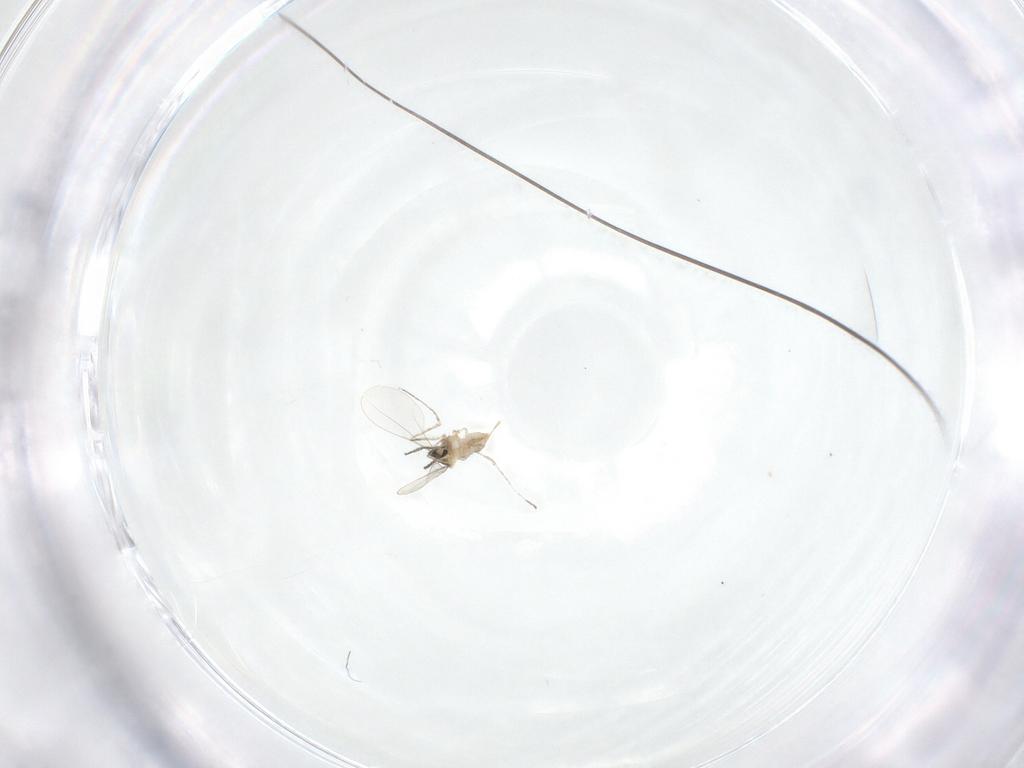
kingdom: Animalia
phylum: Arthropoda
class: Insecta
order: Diptera
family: Cecidomyiidae
